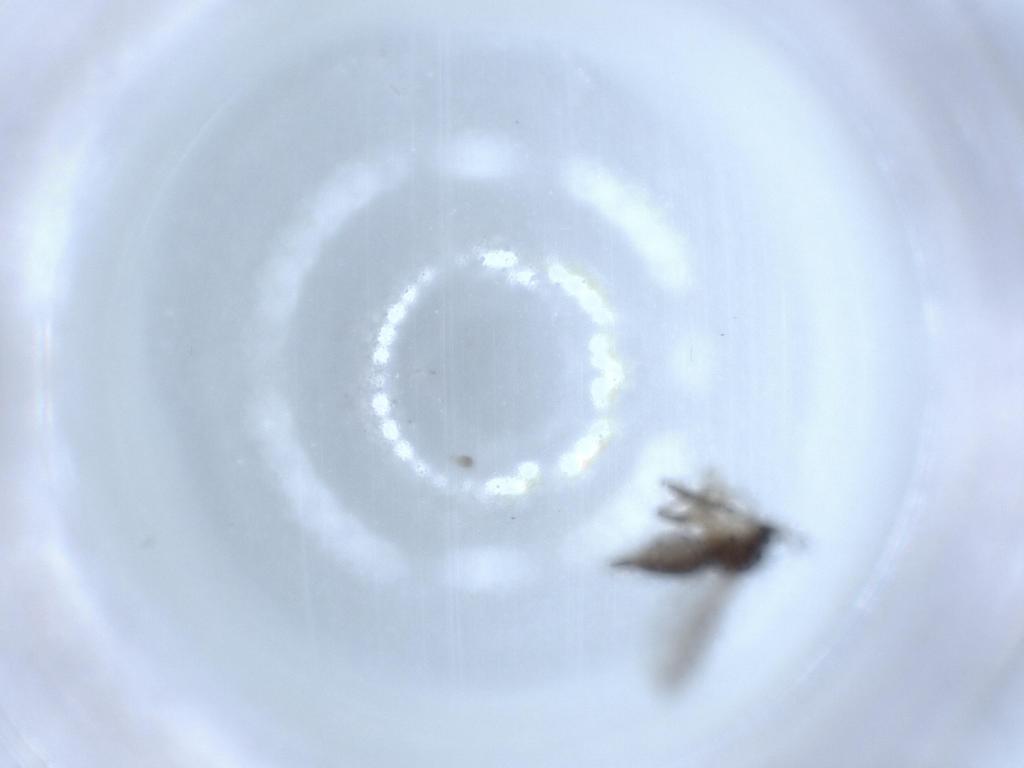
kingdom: Animalia
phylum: Arthropoda
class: Insecta
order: Diptera
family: Sciaridae
